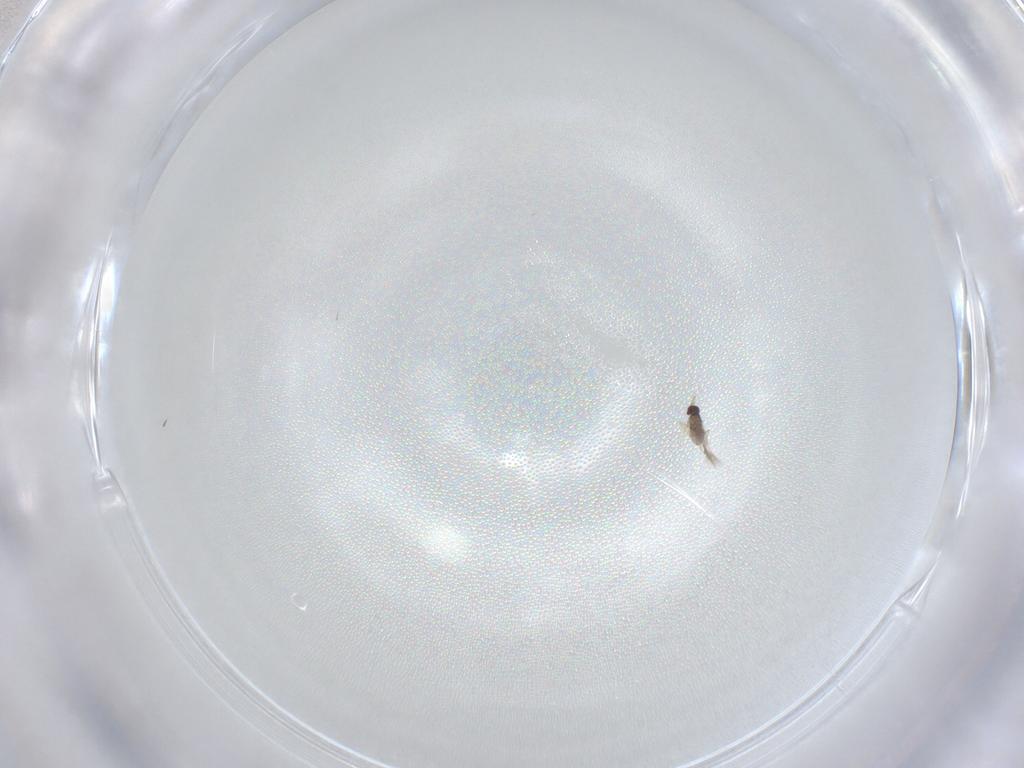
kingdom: Animalia
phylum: Arthropoda
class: Insecta
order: Hymenoptera
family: Mymaridae
